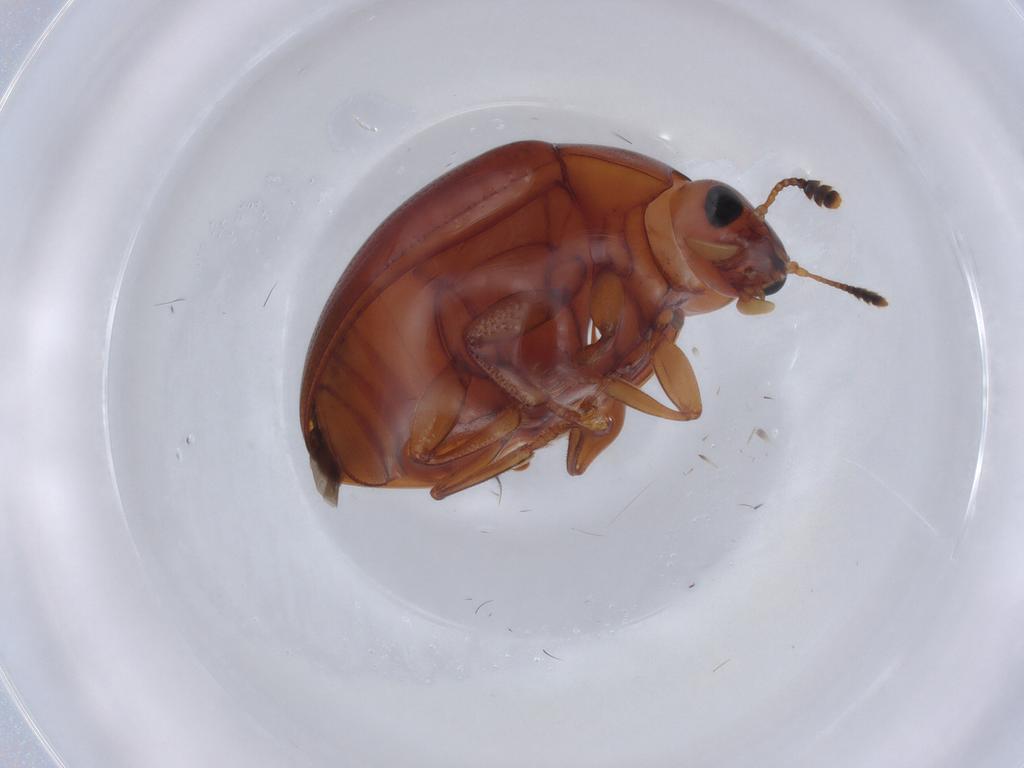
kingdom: Animalia
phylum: Arthropoda
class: Insecta
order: Coleoptera
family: Erotylidae
